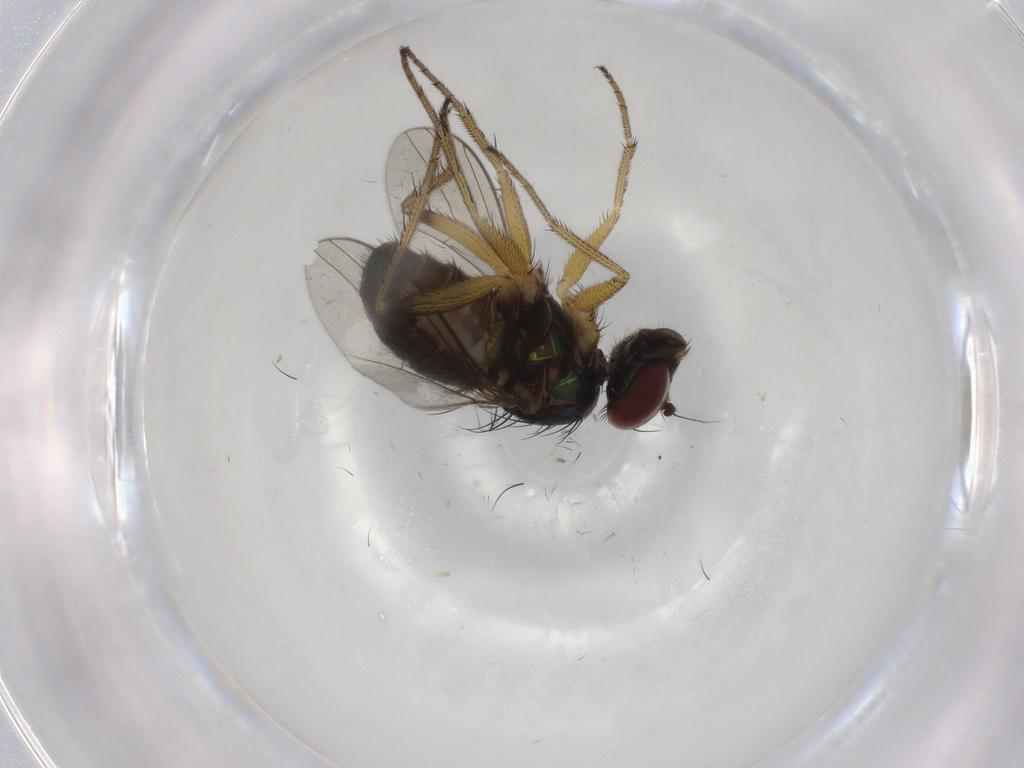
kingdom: Animalia
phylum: Arthropoda
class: Insecta
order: Diptera
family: Dolichopodidae
